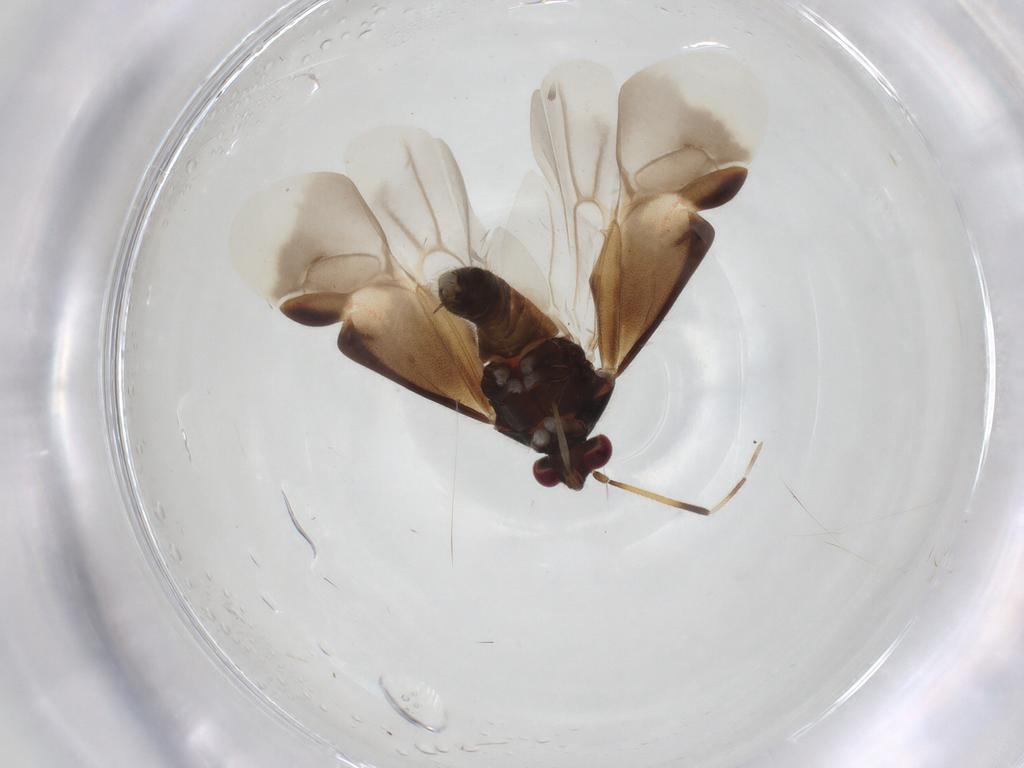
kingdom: Animalia
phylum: Arthropoda
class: Insecta
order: Hemiptera
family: Miridae
